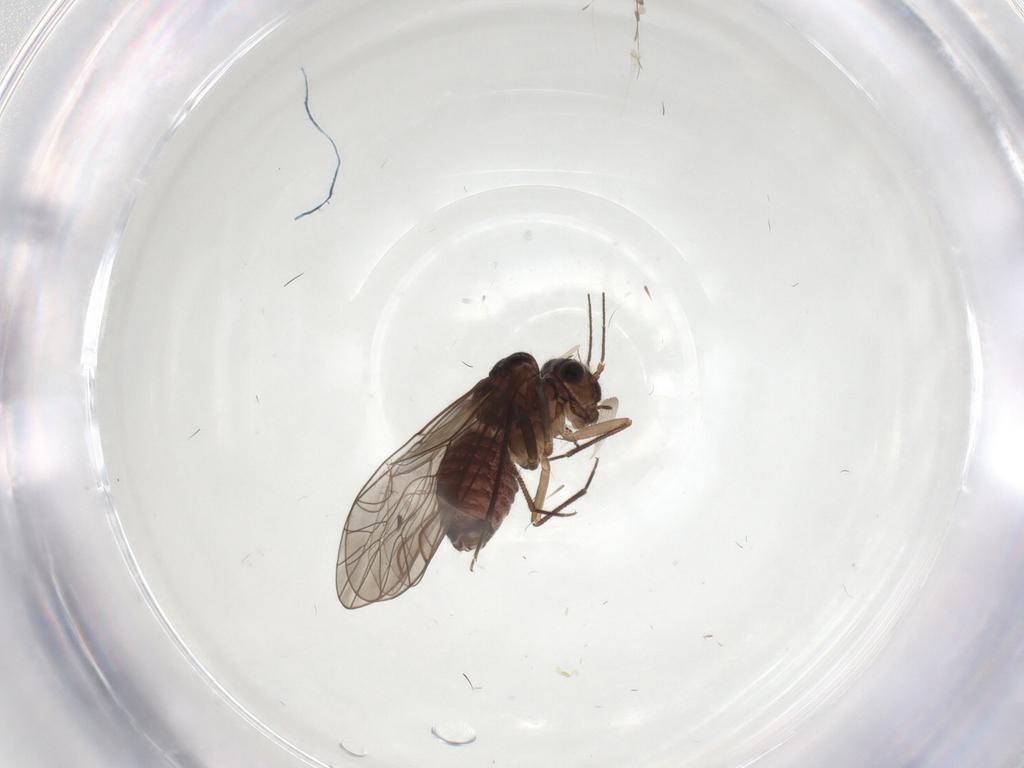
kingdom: Animalia
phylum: Arthropoda
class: Insecta
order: Psocodea
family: Lachesillidae
